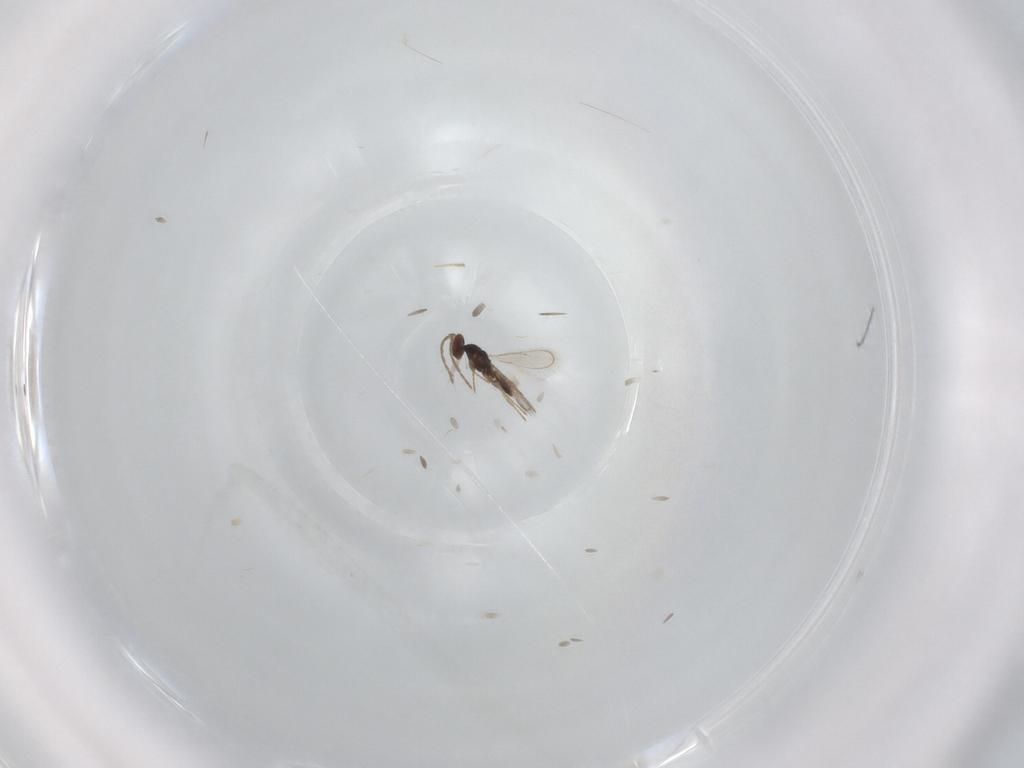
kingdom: Animalia
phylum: Arthropoda
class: Insecta
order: Hymenoptera
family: Eulophidae
